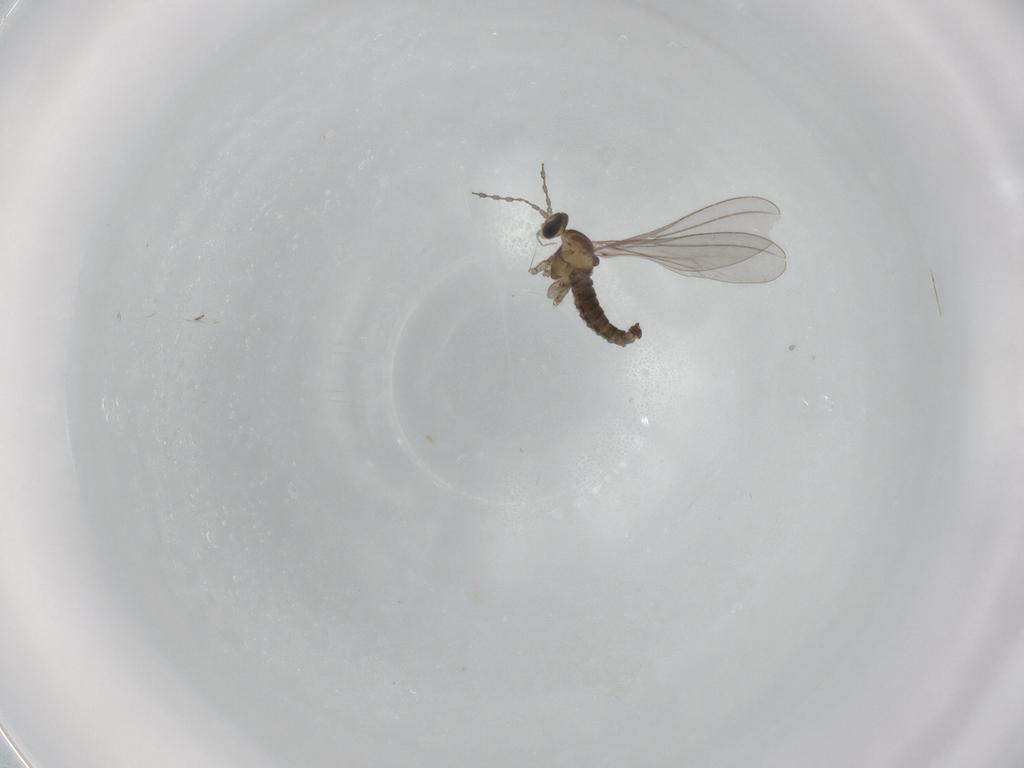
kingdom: Animalia
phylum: Arthropoda
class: Insecta
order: Diptera
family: Cecidomyiidae
